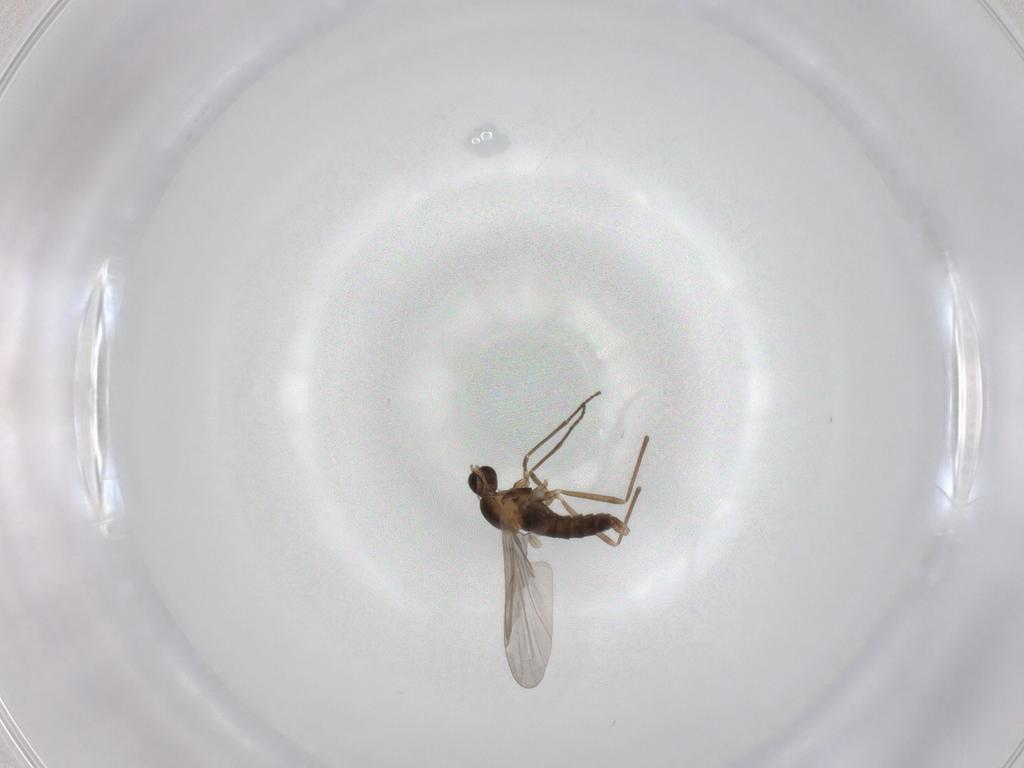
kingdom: Animalia
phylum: Arthropoda
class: Insecta
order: Diptera
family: Cecidomyiidae
